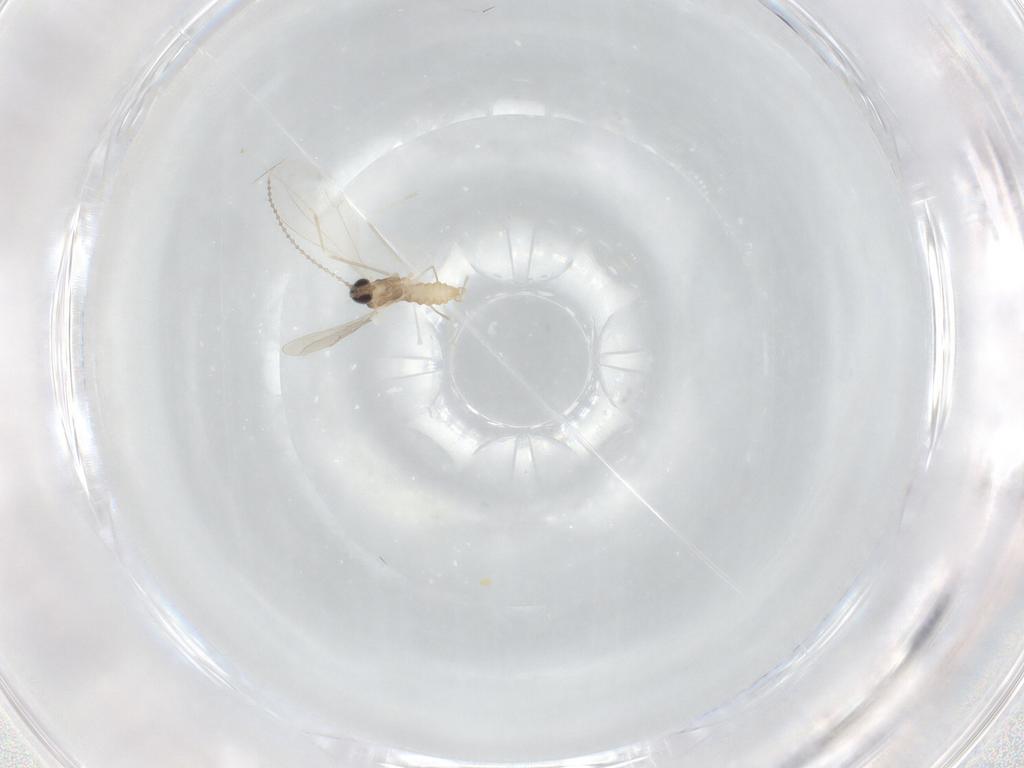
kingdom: Animalia
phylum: Arthropoda
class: Insecta
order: Diptera
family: Cecidomyiidae
